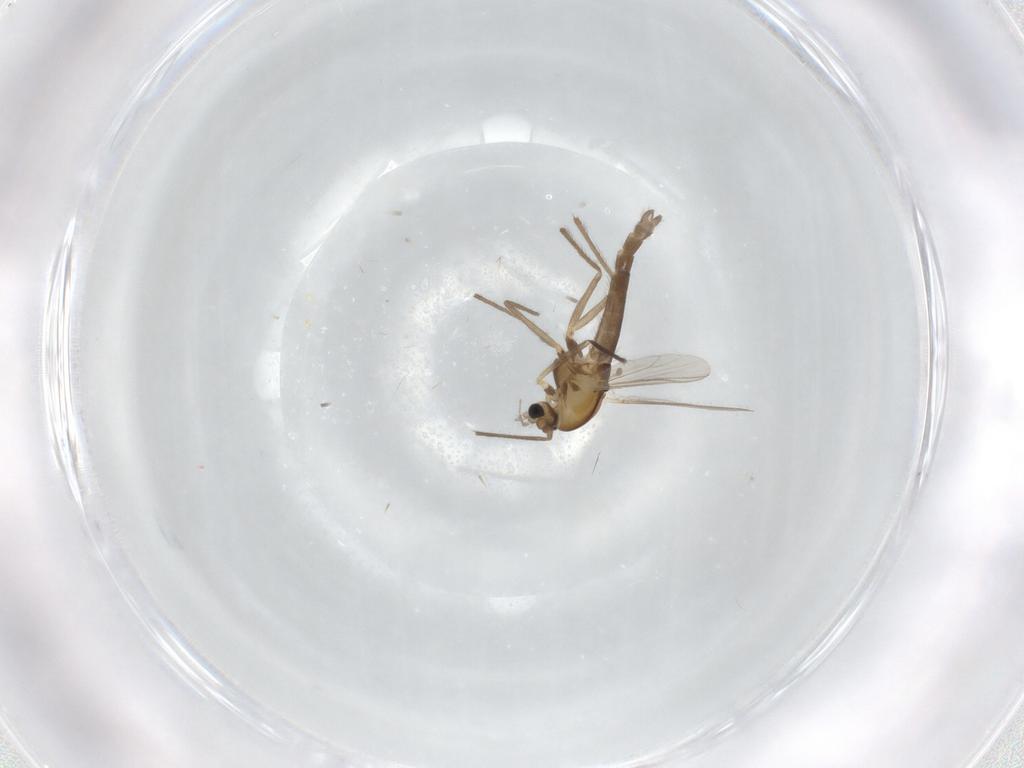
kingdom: Animalia
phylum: Arthropoda
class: Insecta
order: Diptera
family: Chironomidae
